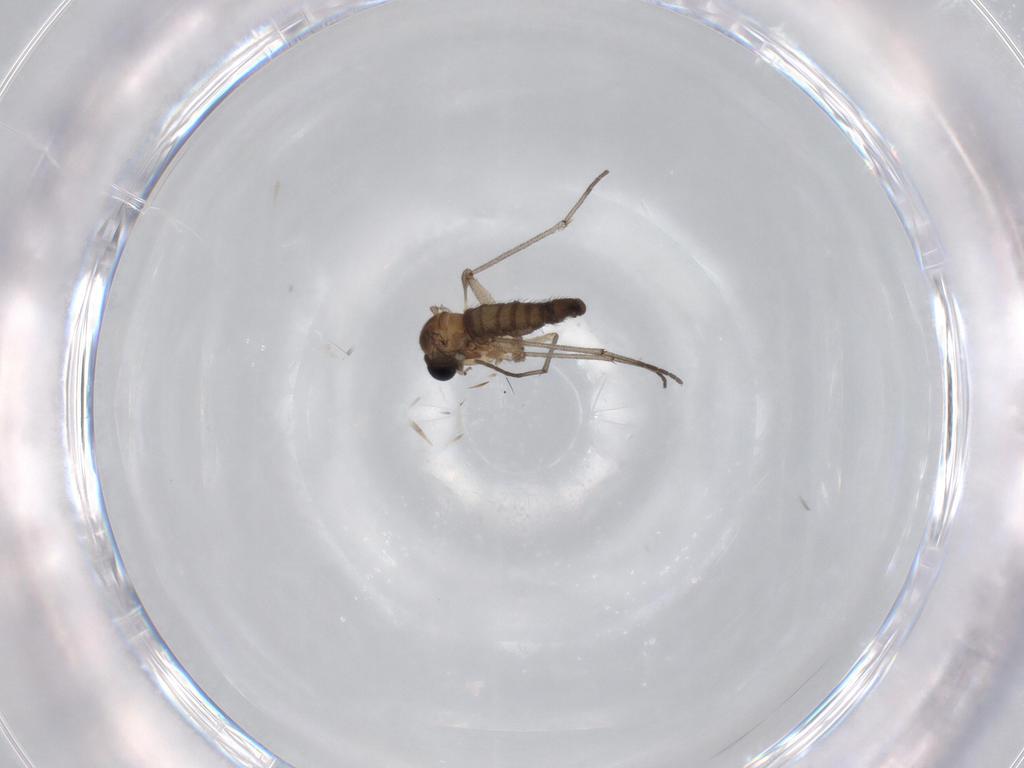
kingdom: Animalia
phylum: Arthropoda
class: Insecta
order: Diptera
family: Sciaridae
